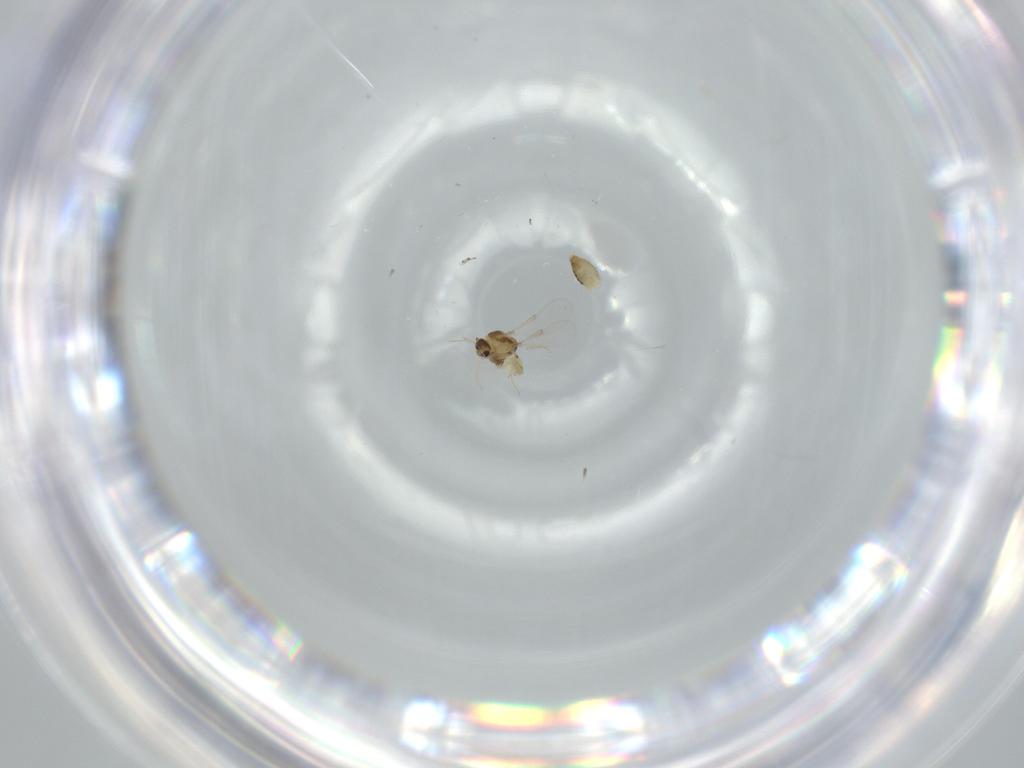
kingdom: Animalia
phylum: Arthropoda
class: Insecta
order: Diptera
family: Chironomidae
